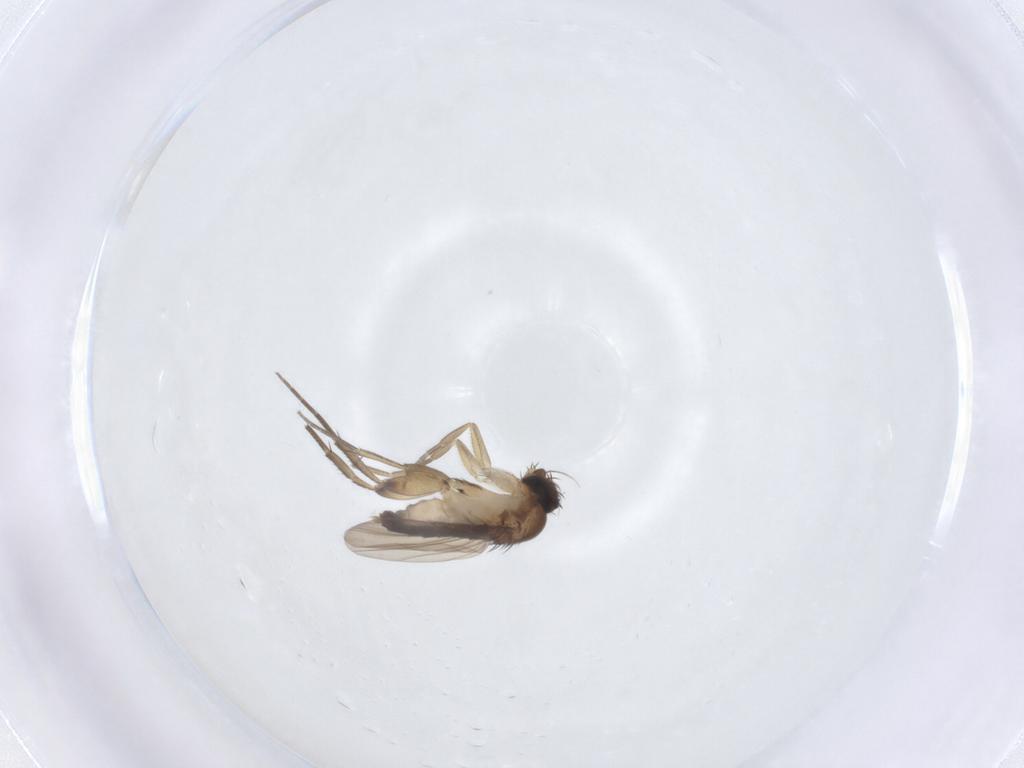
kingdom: Animalia
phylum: Arthropoda
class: Insecta
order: Diptera
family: Phoridae
